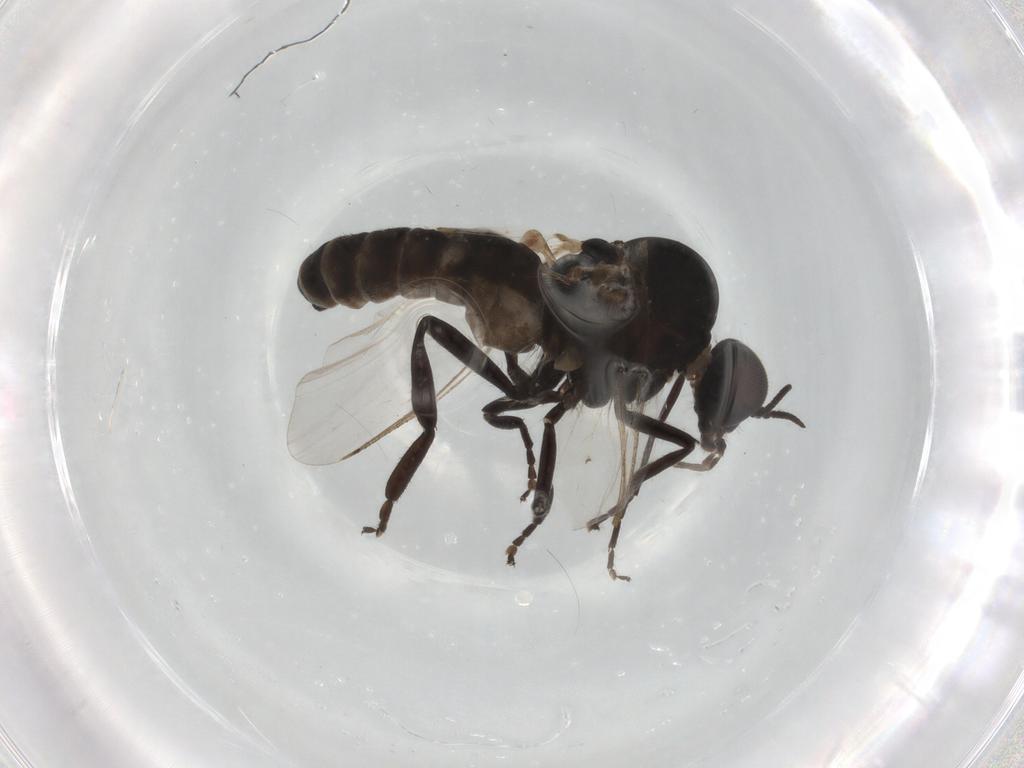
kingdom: Animalia
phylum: Arthropoda
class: Insecta
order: Diptera
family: Chironomidae
